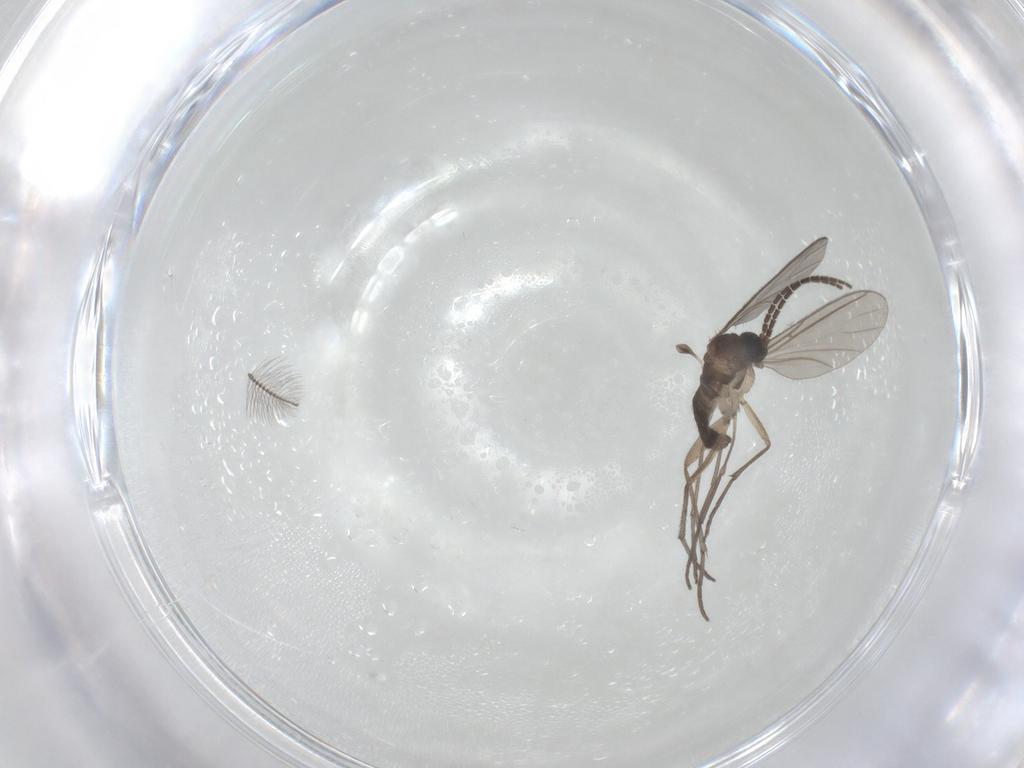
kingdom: Animalia
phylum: Arthropoda
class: Insecta
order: Diptera
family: Sciaridae
